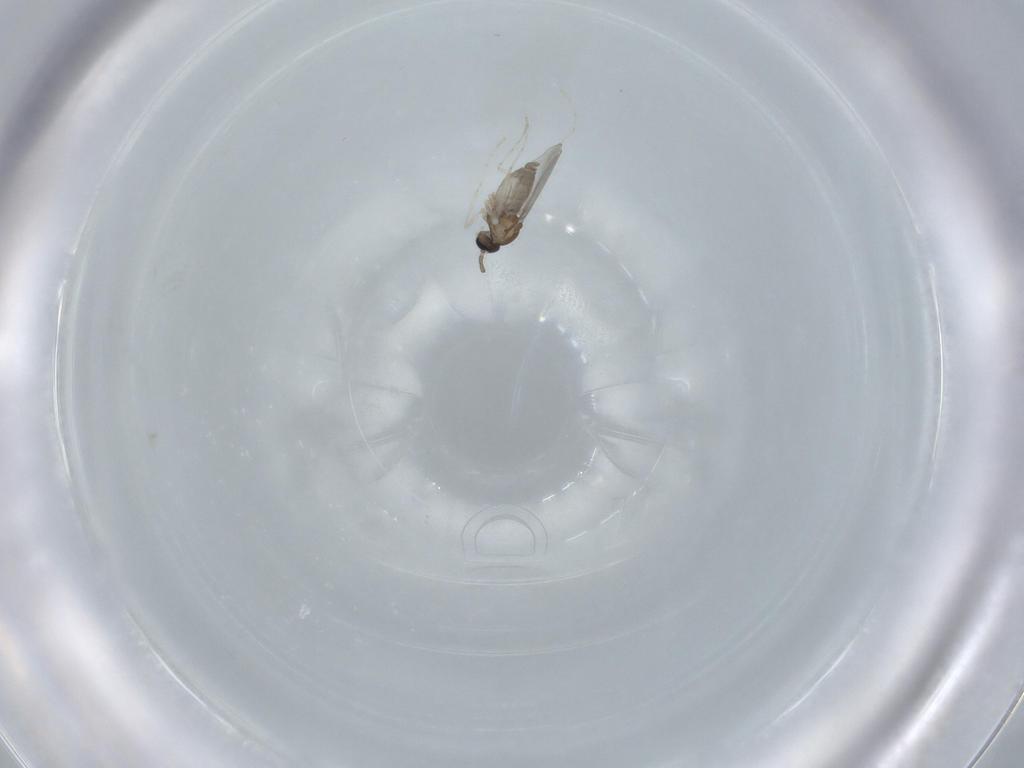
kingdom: Animalia
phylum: Arthropoda
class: Insecta
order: Diptera
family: Cecidomyiidae
